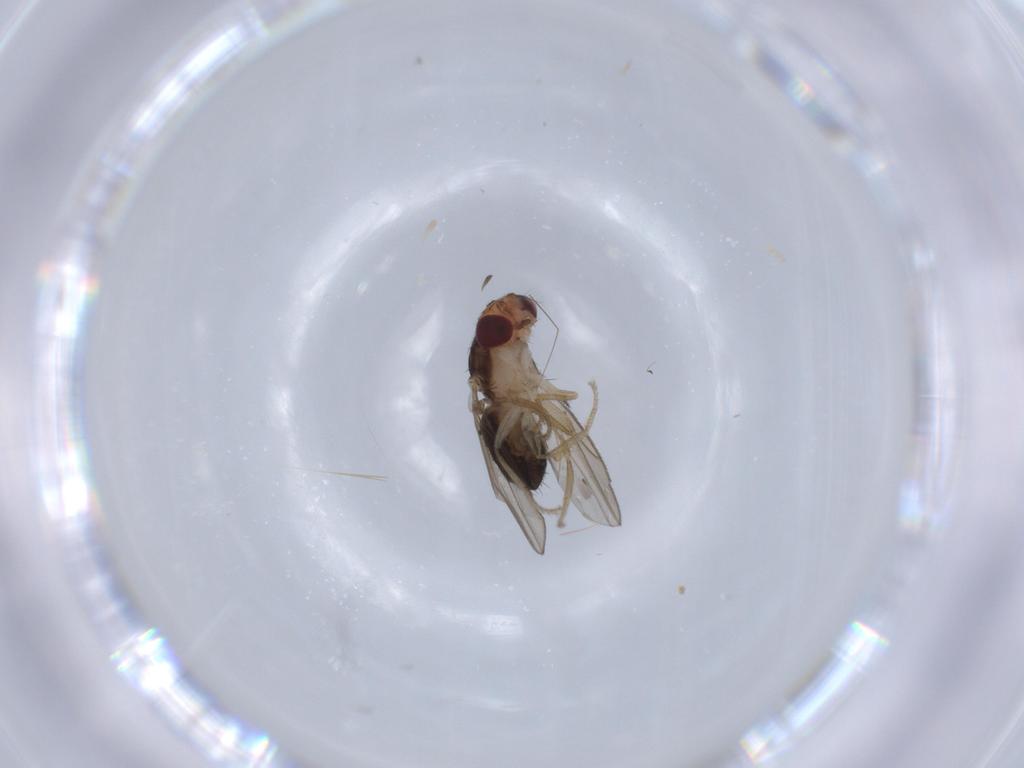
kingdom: Animalia
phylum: Arthropoda
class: Insecta
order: Diptera
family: Drosophilidae
